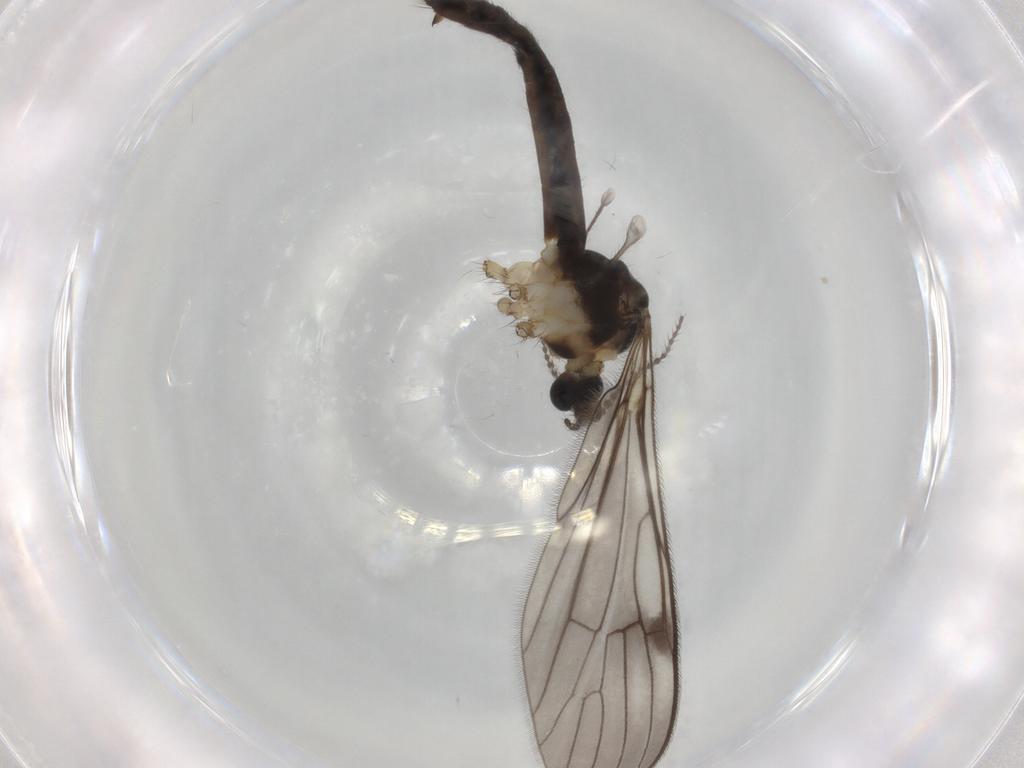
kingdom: Animalia
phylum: Arthropoda
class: Insecta
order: Diptera
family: Limoniidae
